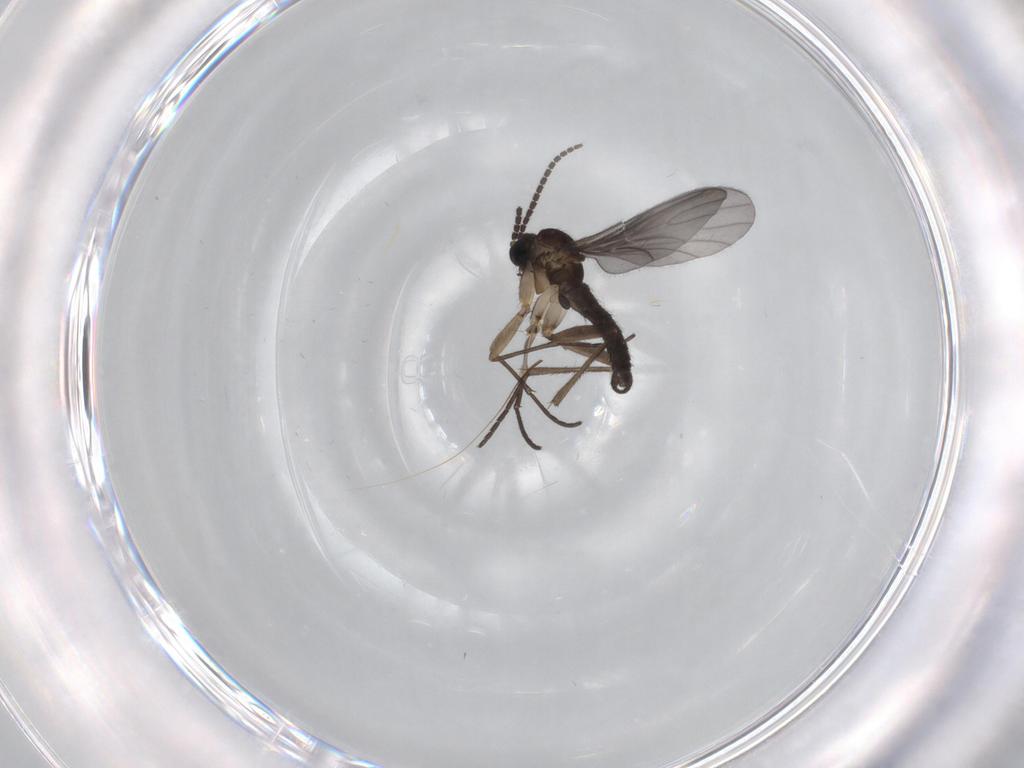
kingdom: Animalia
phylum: Arthropoda
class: Insecta
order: Diptera
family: Sciaridae
